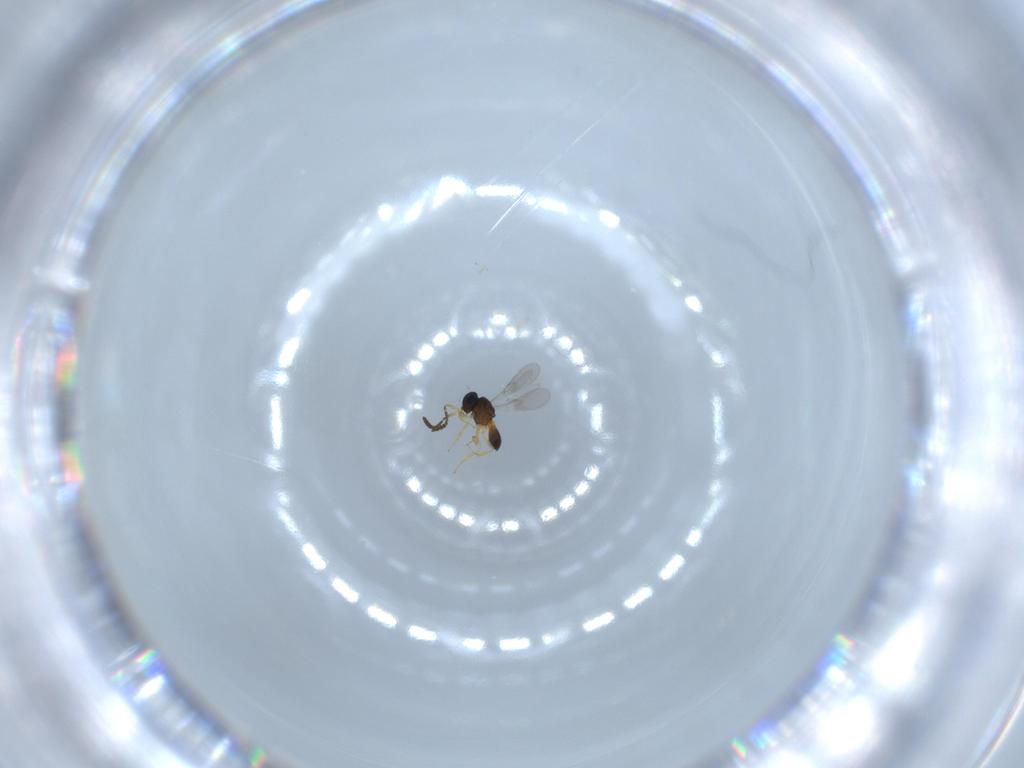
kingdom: Animalia
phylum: Arthropoda
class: Insecta
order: Hymenoptera
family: Scelionidae
